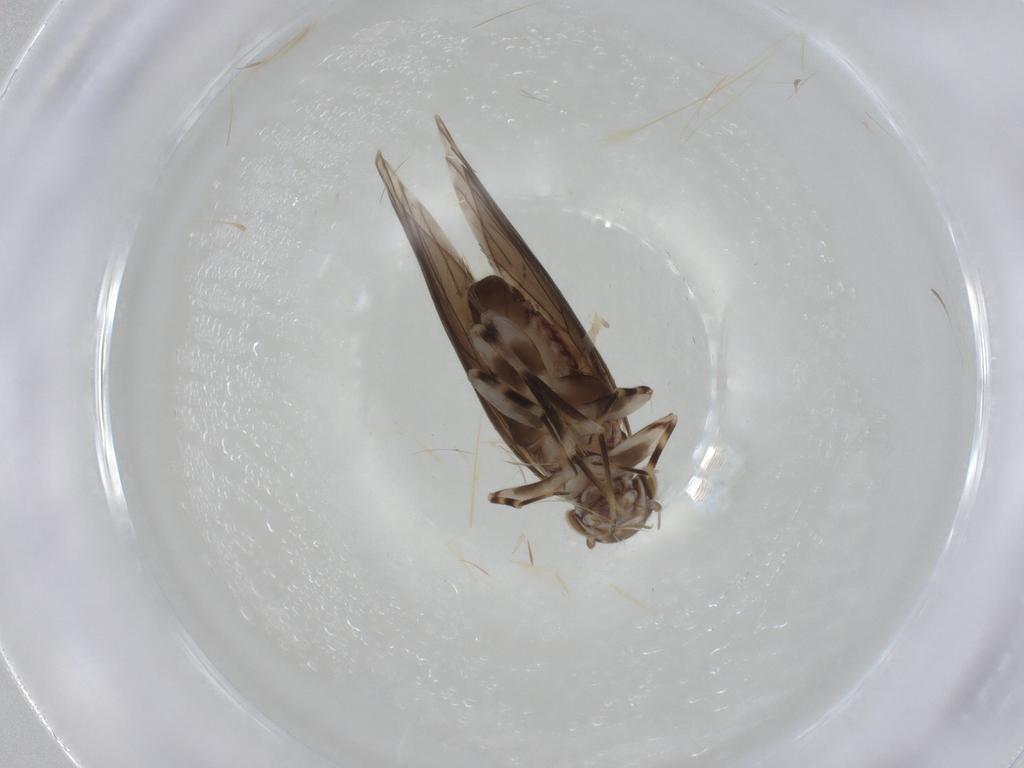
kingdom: Animalia
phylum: Arthropoda
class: Insecta
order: Psocodea
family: Amphientomidae
